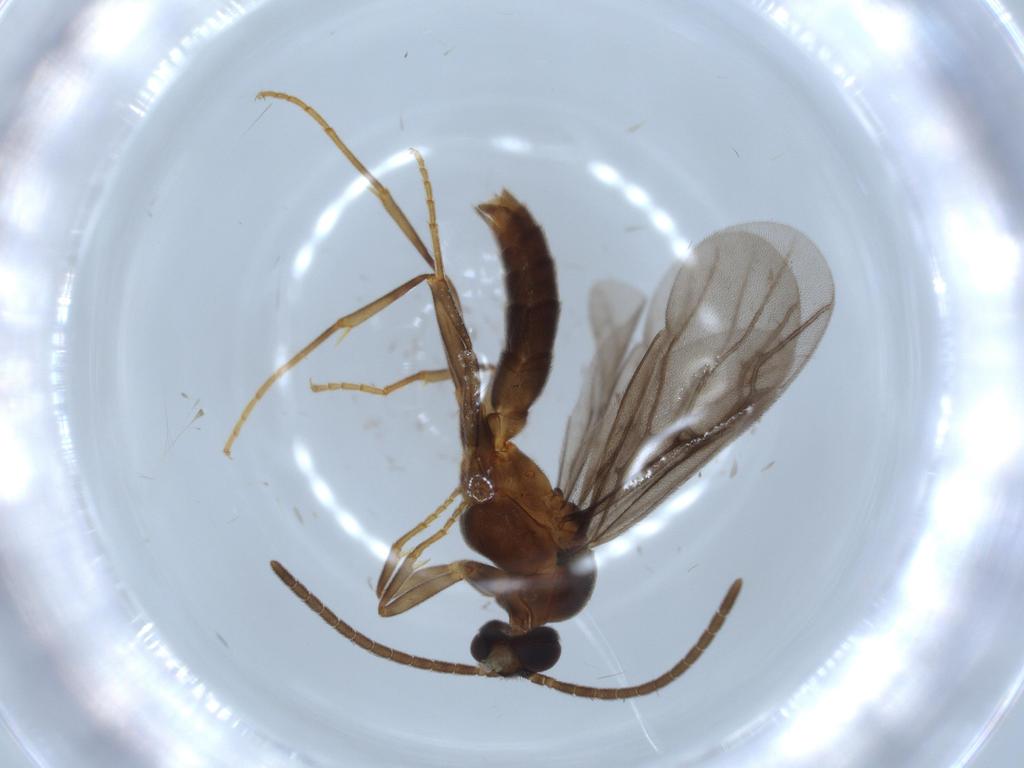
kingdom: Animalia
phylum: Arthropoda
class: Insecta
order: Hymenoptera
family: Formicidae
